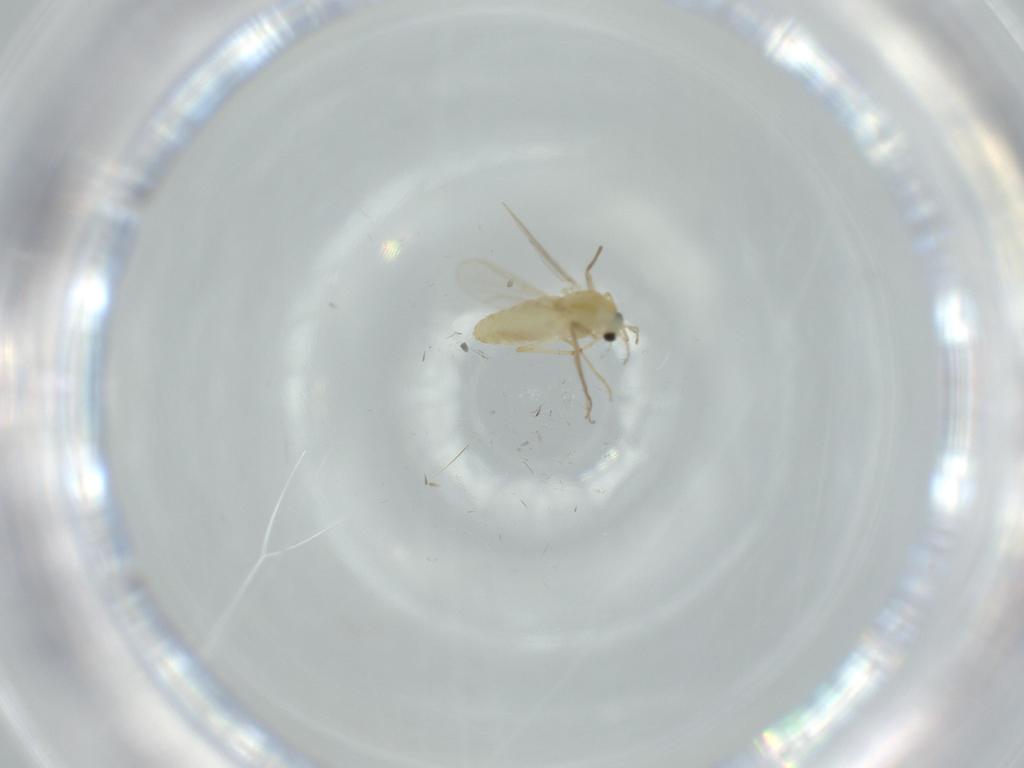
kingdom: Animalia
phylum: Arthropoda
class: Insecta
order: Diptera
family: Chironomidae
